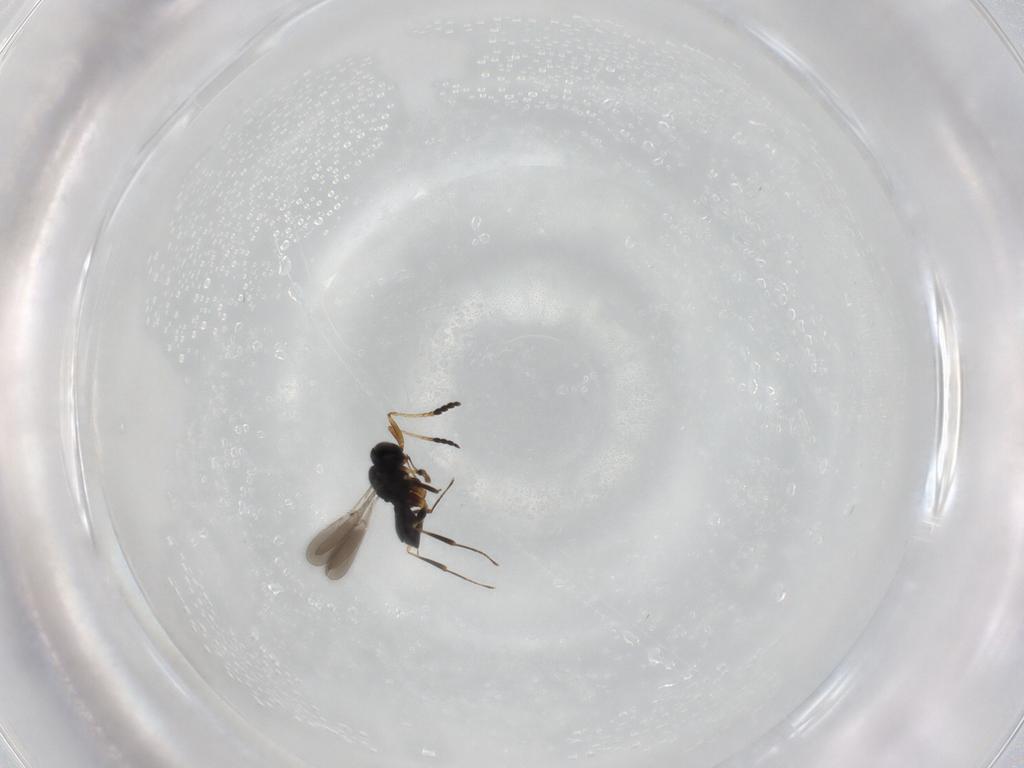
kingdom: Animalia
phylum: Arthropoda
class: Insecta
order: Hymenoptera
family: Scelionidae
